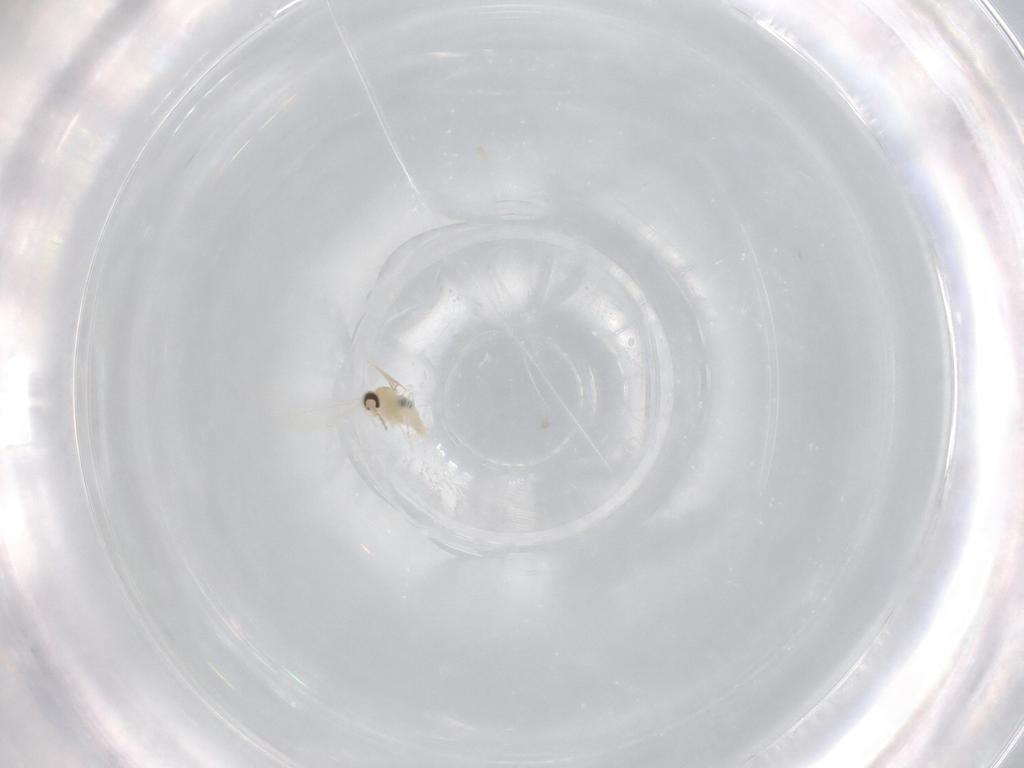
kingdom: Animalia
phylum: Arthropoda
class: Insecta
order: Diptera
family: Cecidomyiidae
